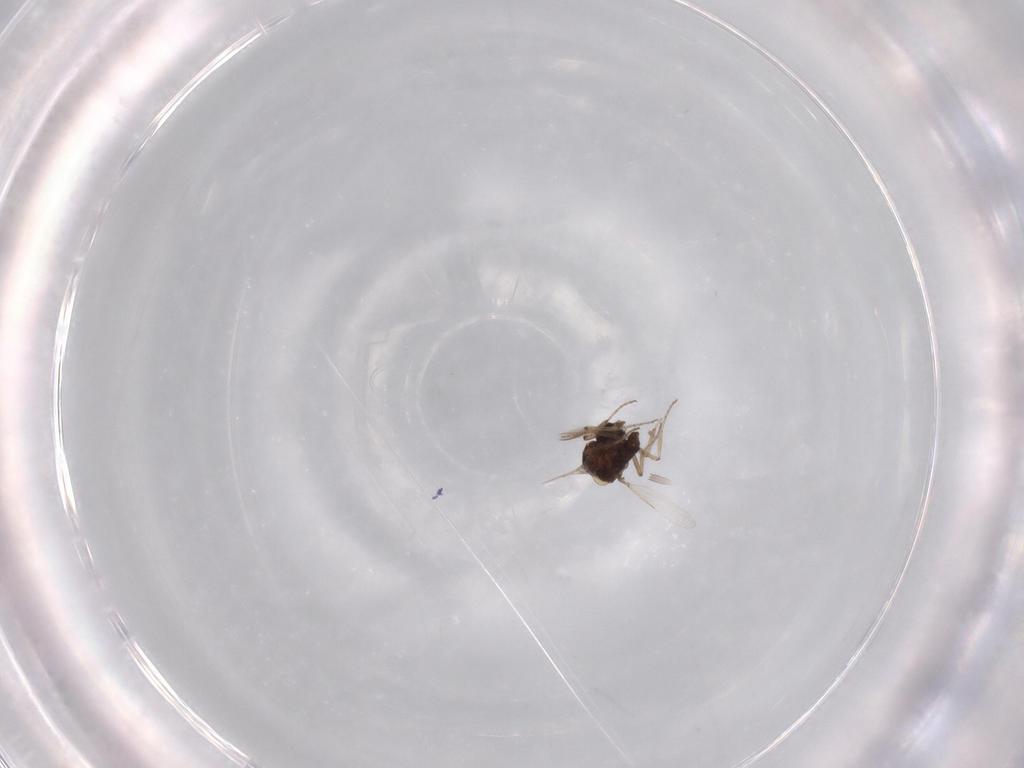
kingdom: Animalia
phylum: Arthropoda
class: Insecta
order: Diptera
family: Ceratopogonidae
